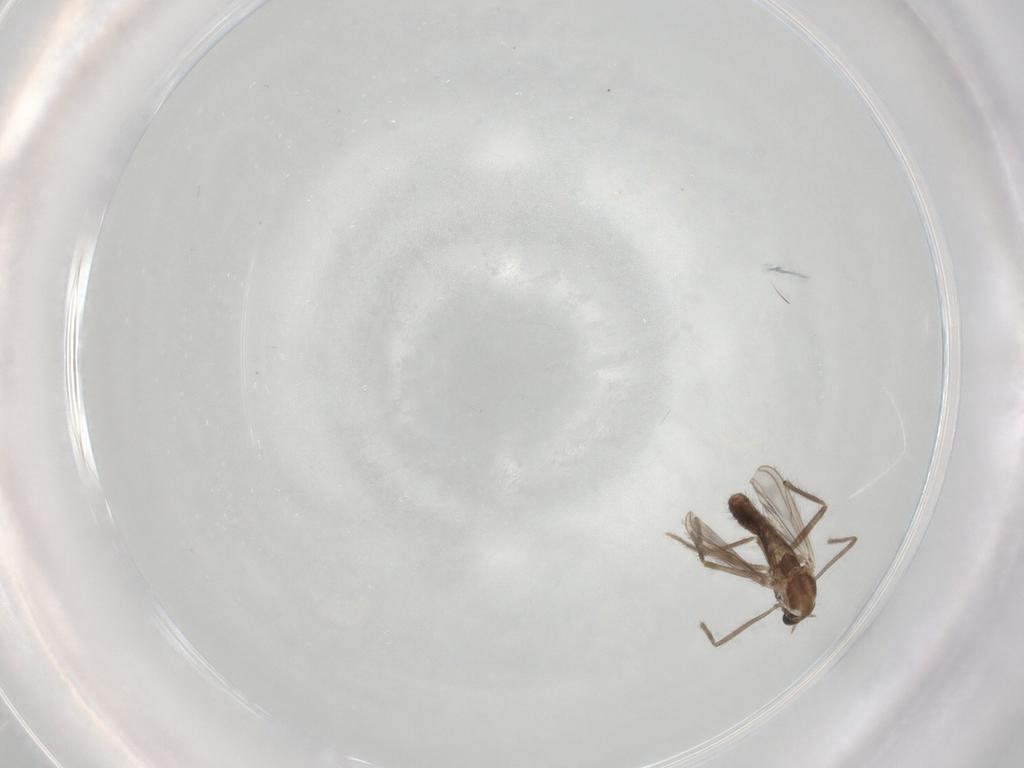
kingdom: Animalia
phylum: Arthropoda
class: Insecta
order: Diptera
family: Chironomidae
